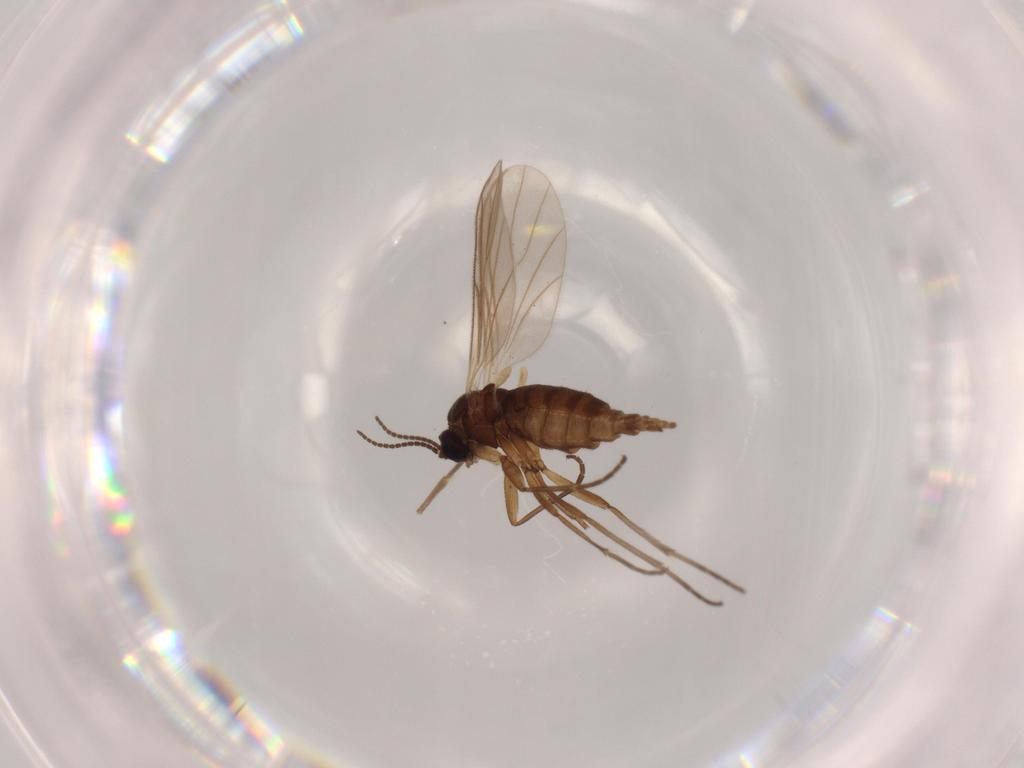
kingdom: Animalia
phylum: Arthropoda
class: Insecta
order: Diptera
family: Sciaridae
